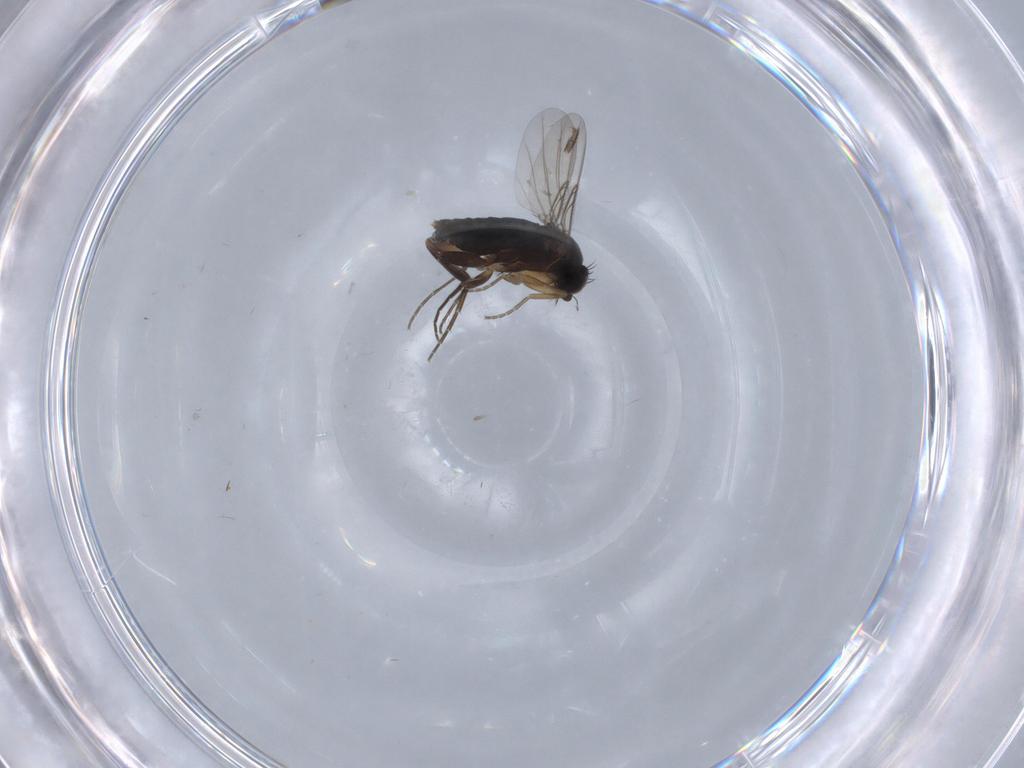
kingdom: Animalia
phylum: Arthropoda
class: Insecta
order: Diptera
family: Phoridae
